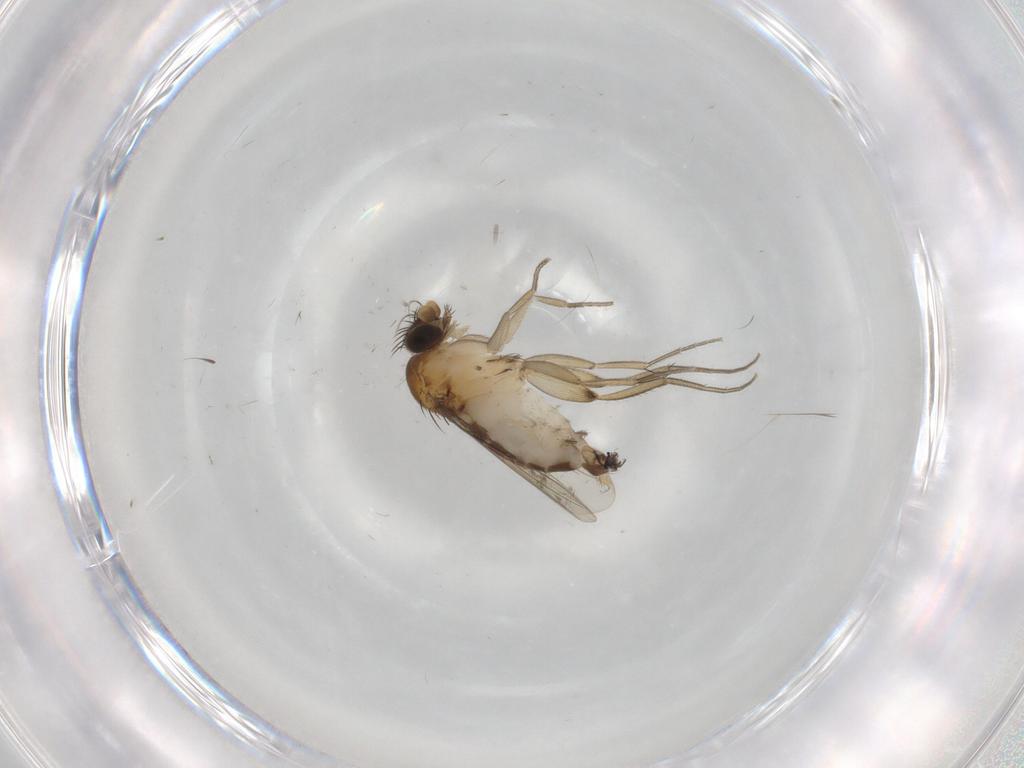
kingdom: Animalia
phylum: Arthropoda
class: Insecta
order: Diptera
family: Phoridae
